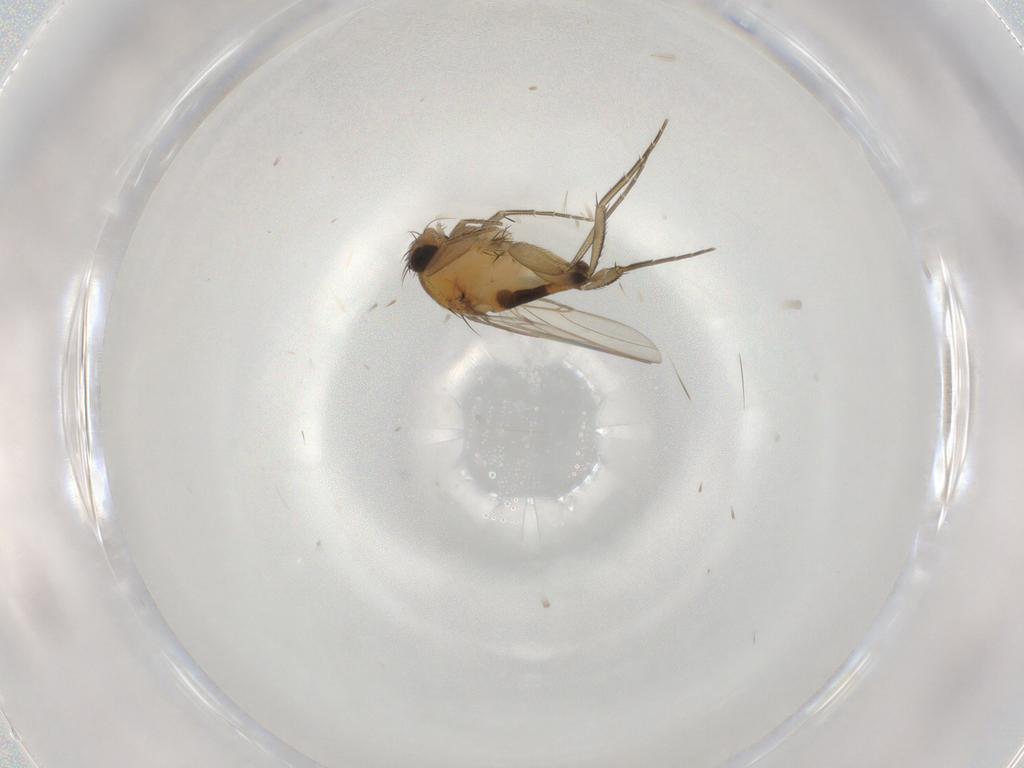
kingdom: Animalia
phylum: Arthropoda
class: Insecta
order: Diptera
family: Phoridae
